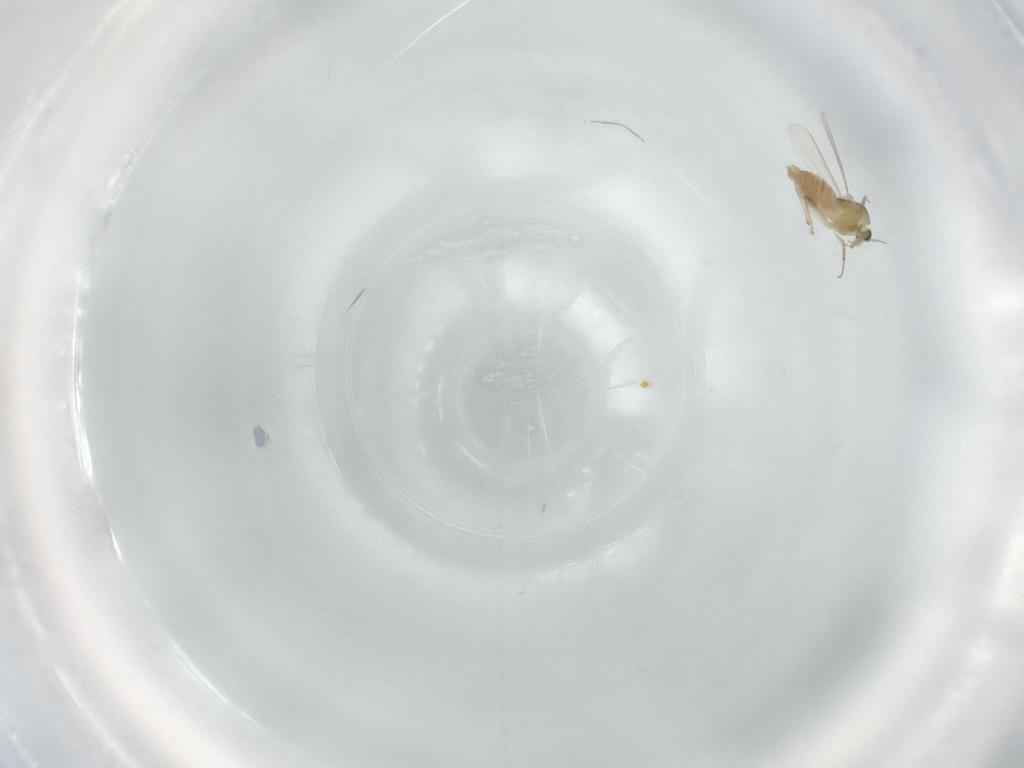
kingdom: Animalia
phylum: Arthropoda
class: Insecta
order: Diptera
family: Chironomidae
